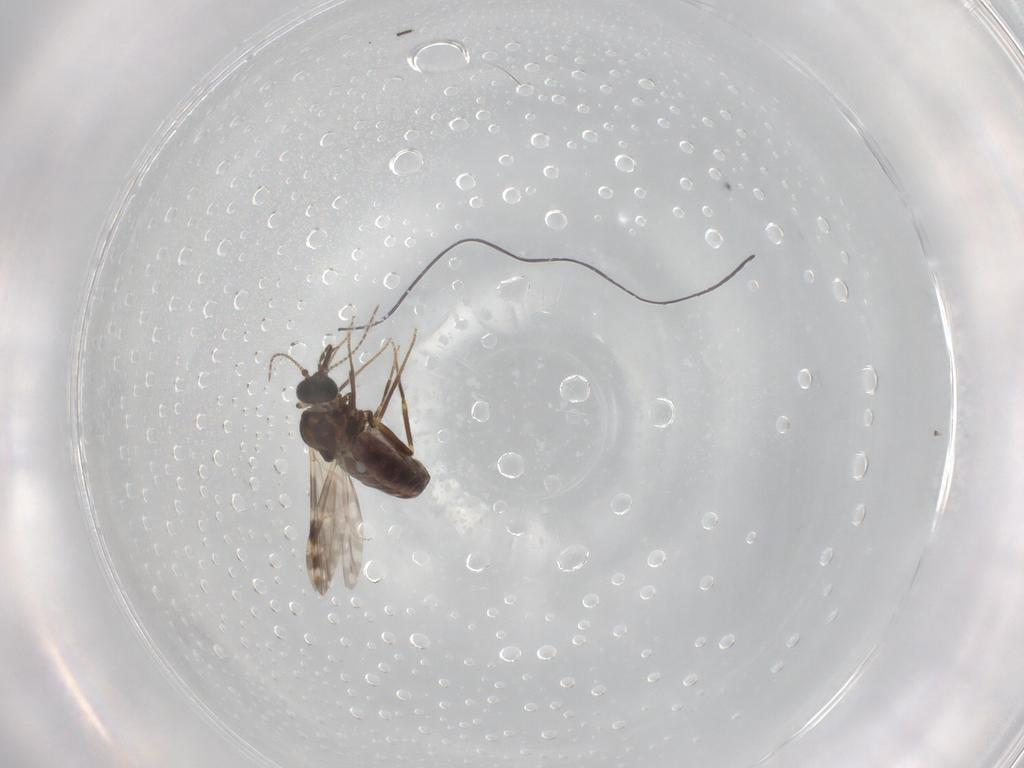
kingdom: Animalia
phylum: Arthropoda
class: Insecta
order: Diptera
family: Ceratopogonidae
